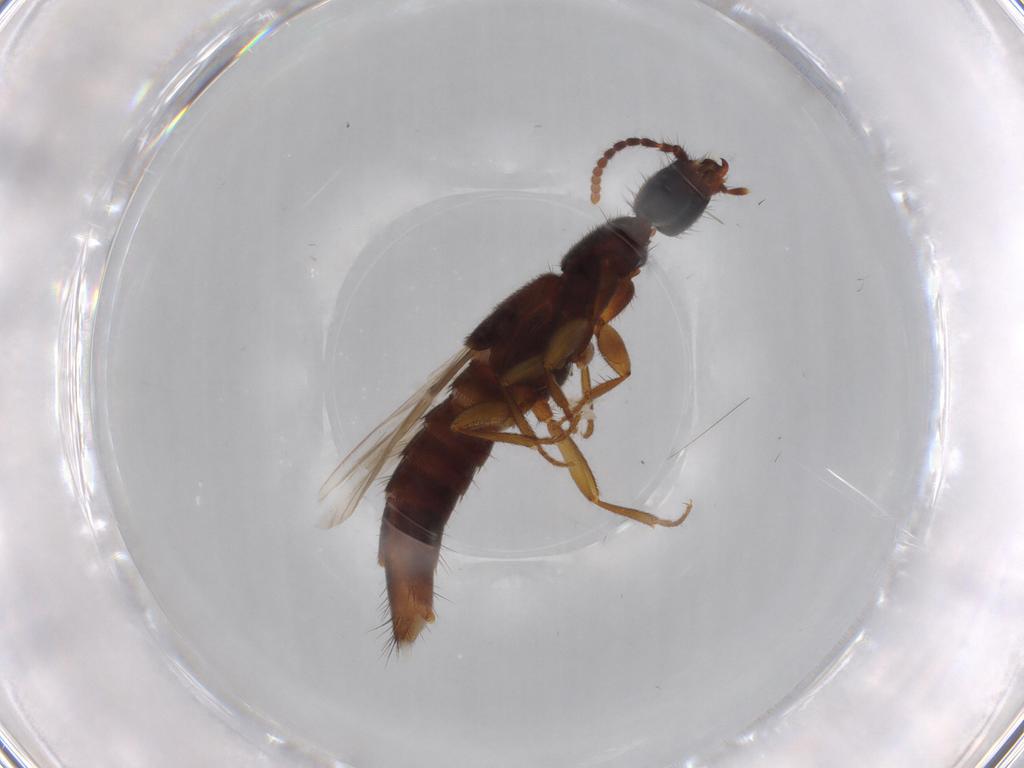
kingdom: Animalia
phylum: Arthropoda
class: Insecta
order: Coleoptera
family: Staphylinidae
